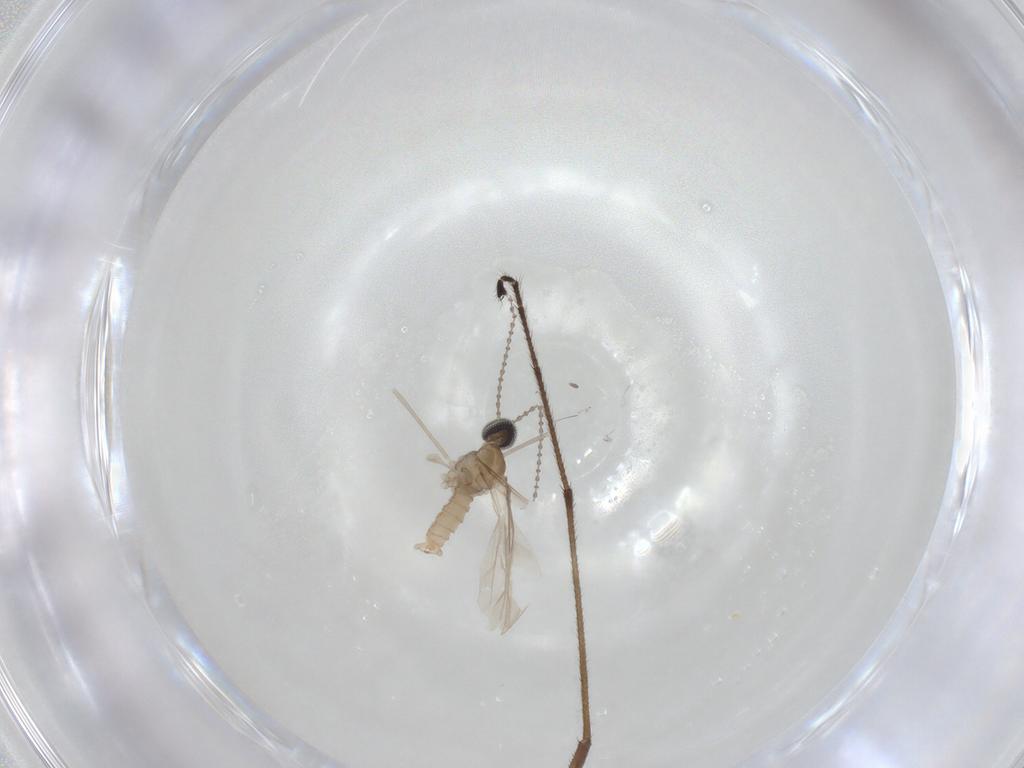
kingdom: Animalia
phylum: Arthropoda
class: Insecta
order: Diptera
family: Cecidomyiidae
